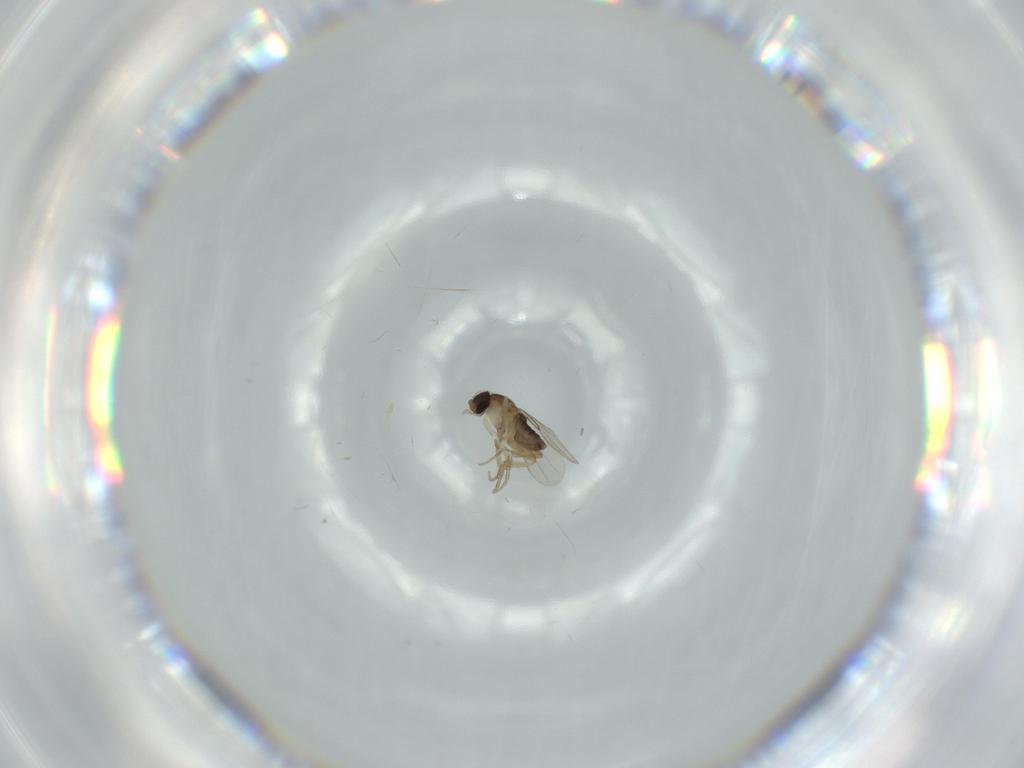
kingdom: Animalia
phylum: Arthropoda
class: Insecta
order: Diptera
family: Phoridae
